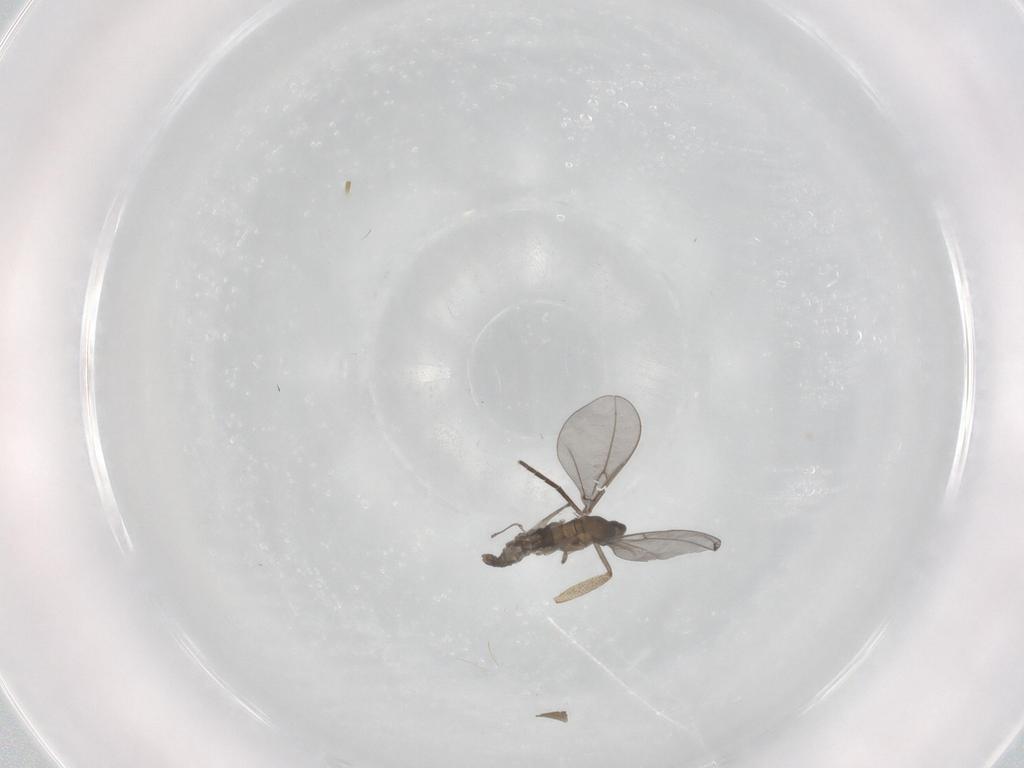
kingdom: Animalia
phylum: Arthropoda
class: Insecta
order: Diptera
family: Cecidomyiidae
